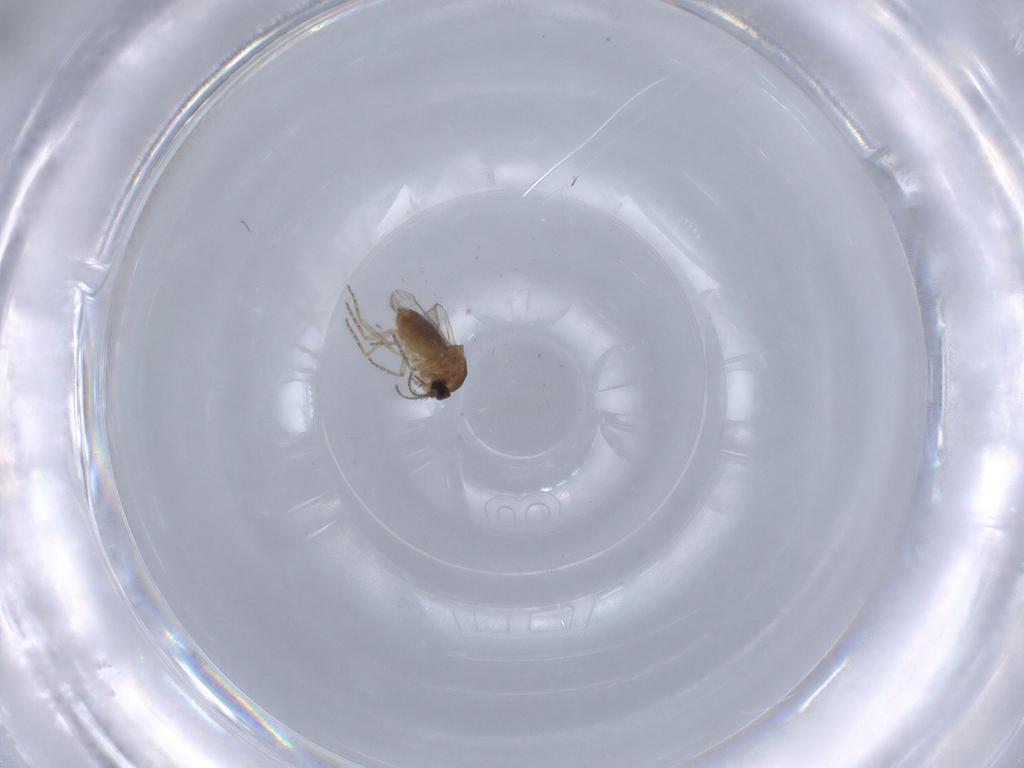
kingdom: Animalia
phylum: Arthropoda
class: Insecta
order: Diptera
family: Ceratopogonidae
